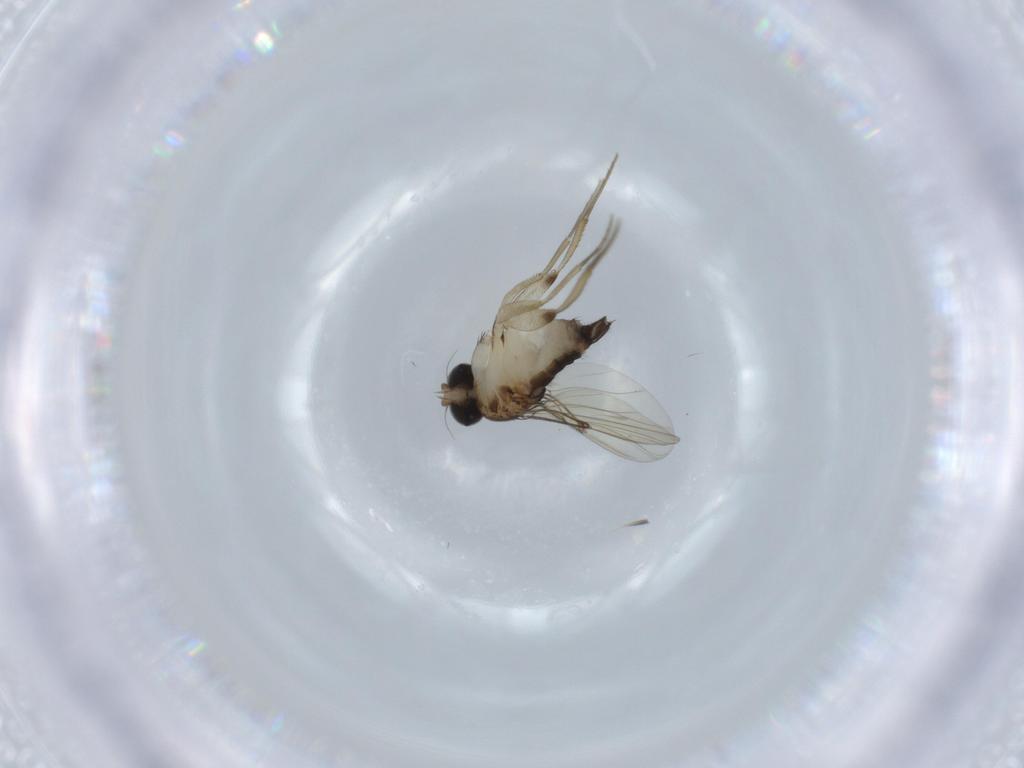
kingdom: Animalia
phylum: Arthropoda
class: Insecta
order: Diptera
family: Phoridae
